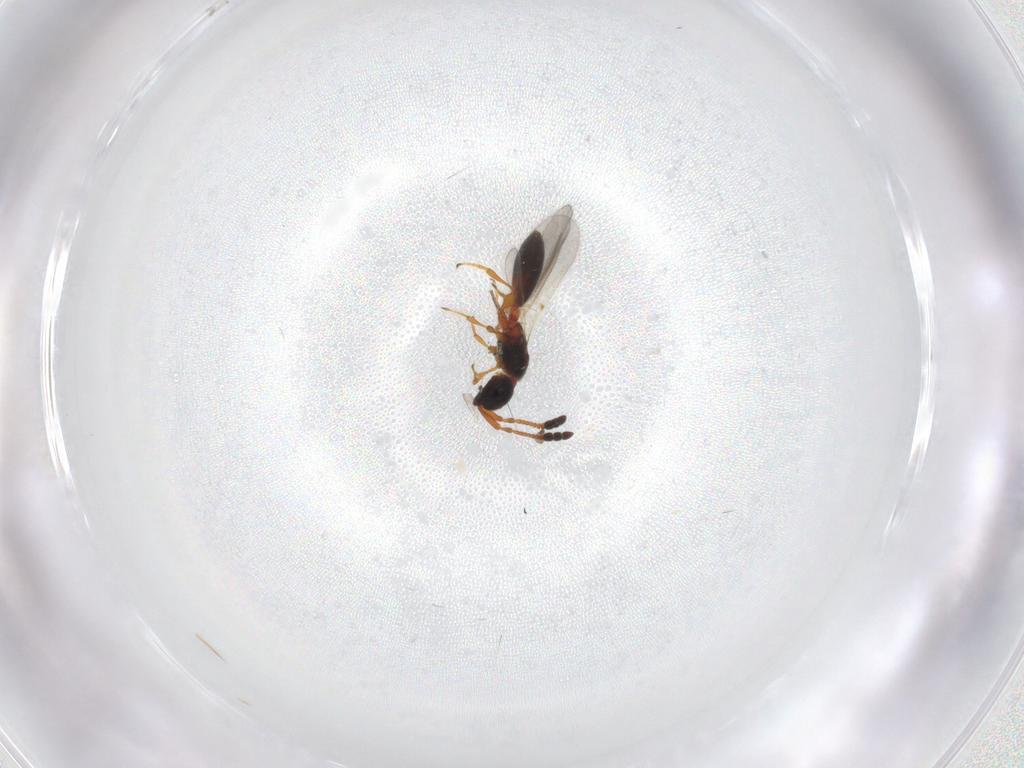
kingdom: Animalia
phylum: Arthropoda
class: Insecta
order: Hymenoptera
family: Diapriidae
